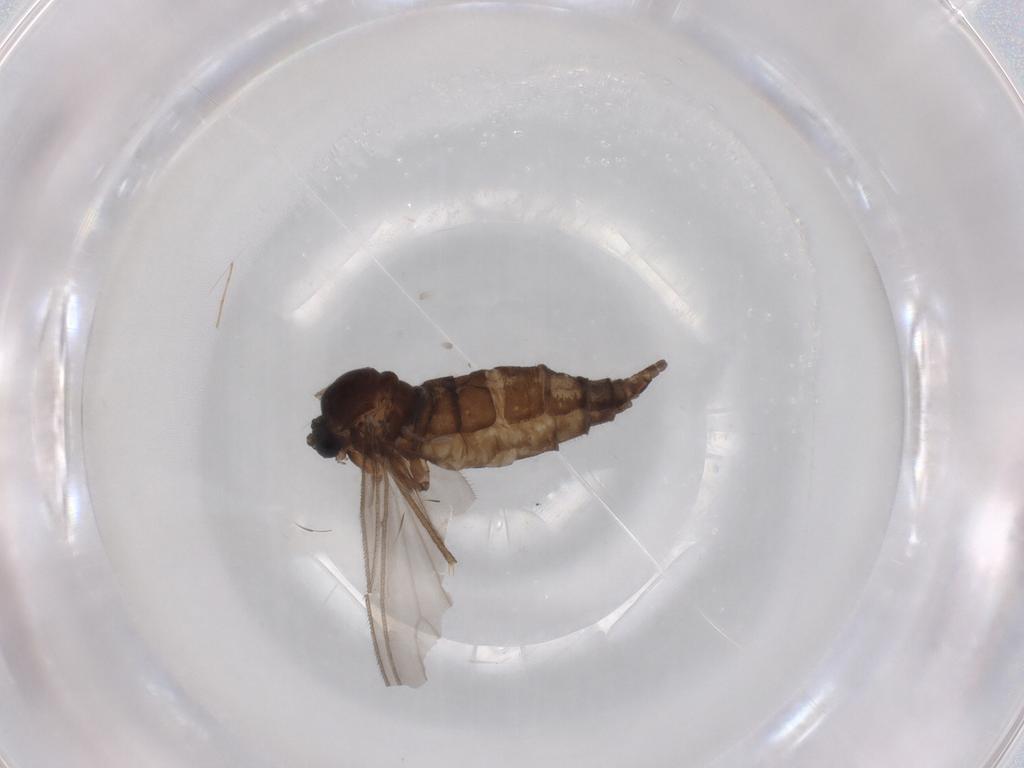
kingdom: Animalia
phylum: Arthropoda
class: Insecta
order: Diptera
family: Sciaridae
